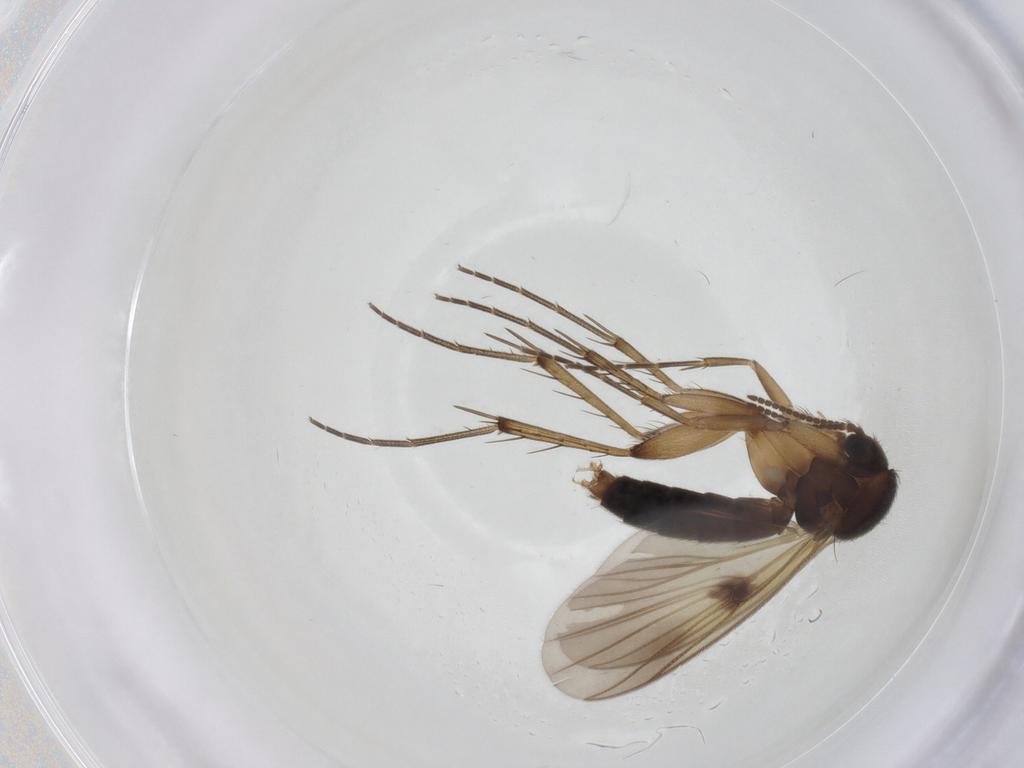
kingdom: Animalia
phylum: Arthropoda
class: Insecta
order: Diptera
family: Mycetophilidae
